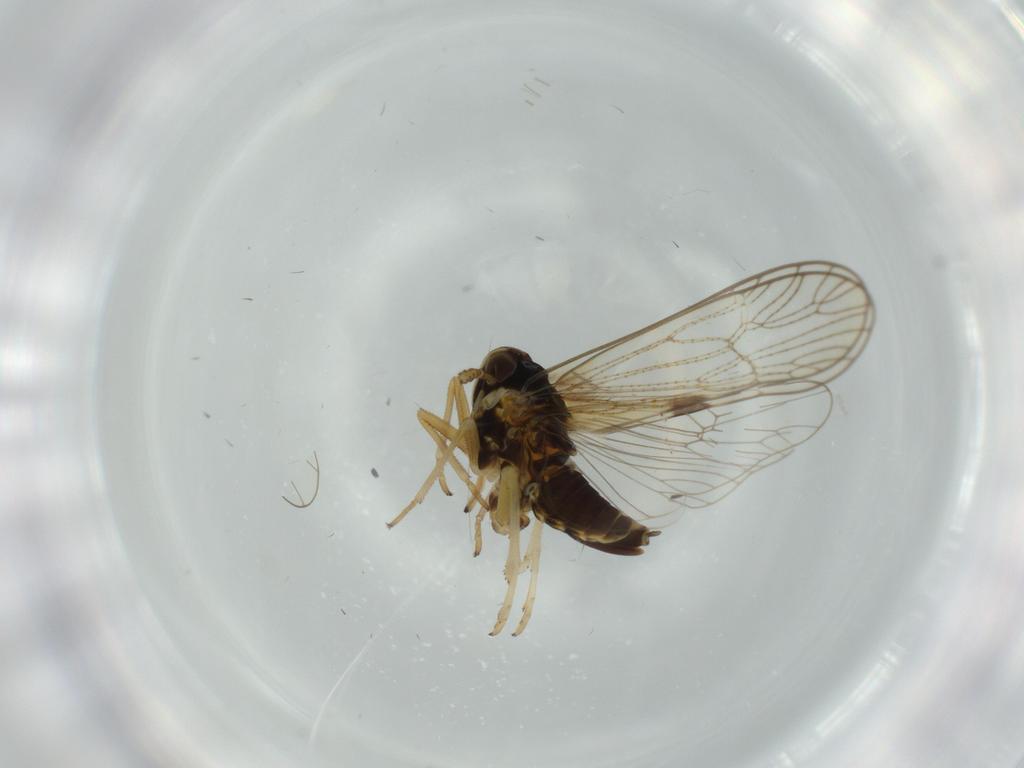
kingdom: Animalia
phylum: Arthropoda
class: Insecta
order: Hemiptera
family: Cicadellidae
